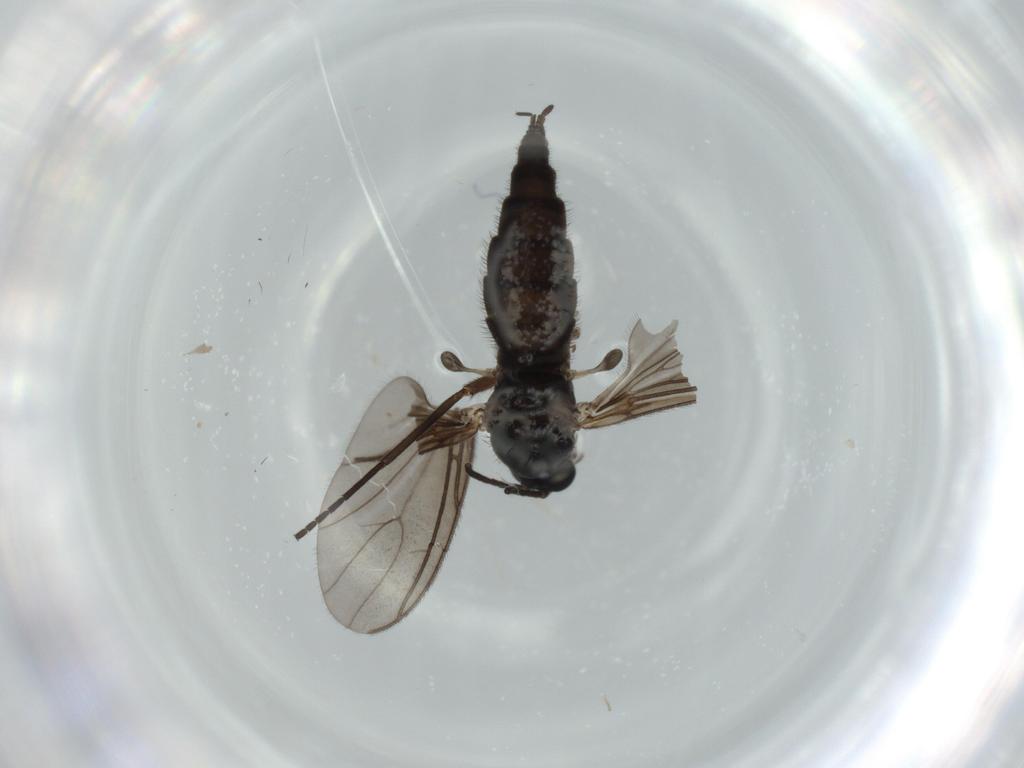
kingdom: Animalia
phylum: Arthropoda
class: Insecta
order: Diptera
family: Sciaridae
